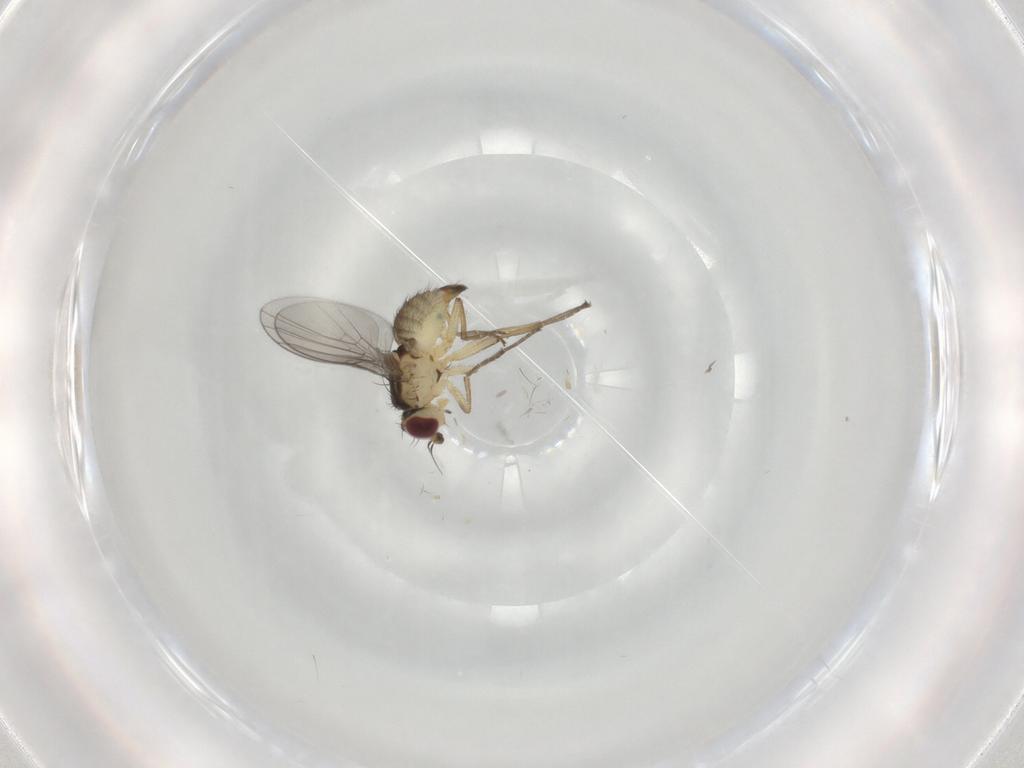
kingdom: Animalia
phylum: Arthropoda
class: Insecta
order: Diptera
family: Agromyzidae
